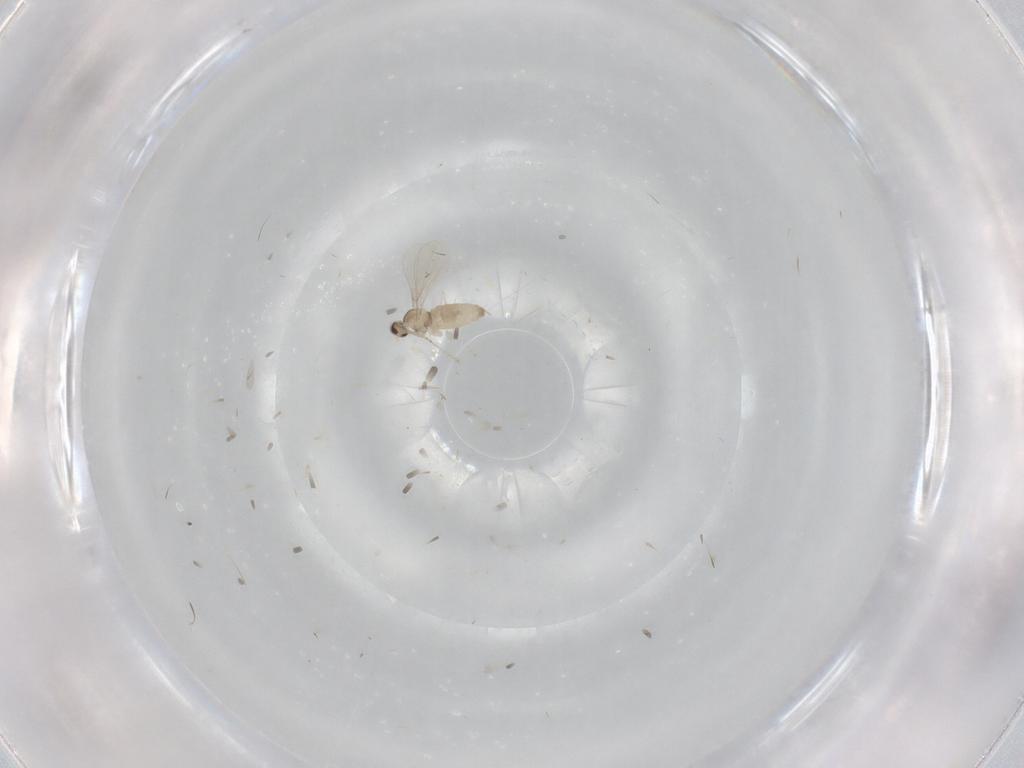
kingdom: Animalia
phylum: Arthropoda
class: Insecta
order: Diptera
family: Cecidomyiidae
